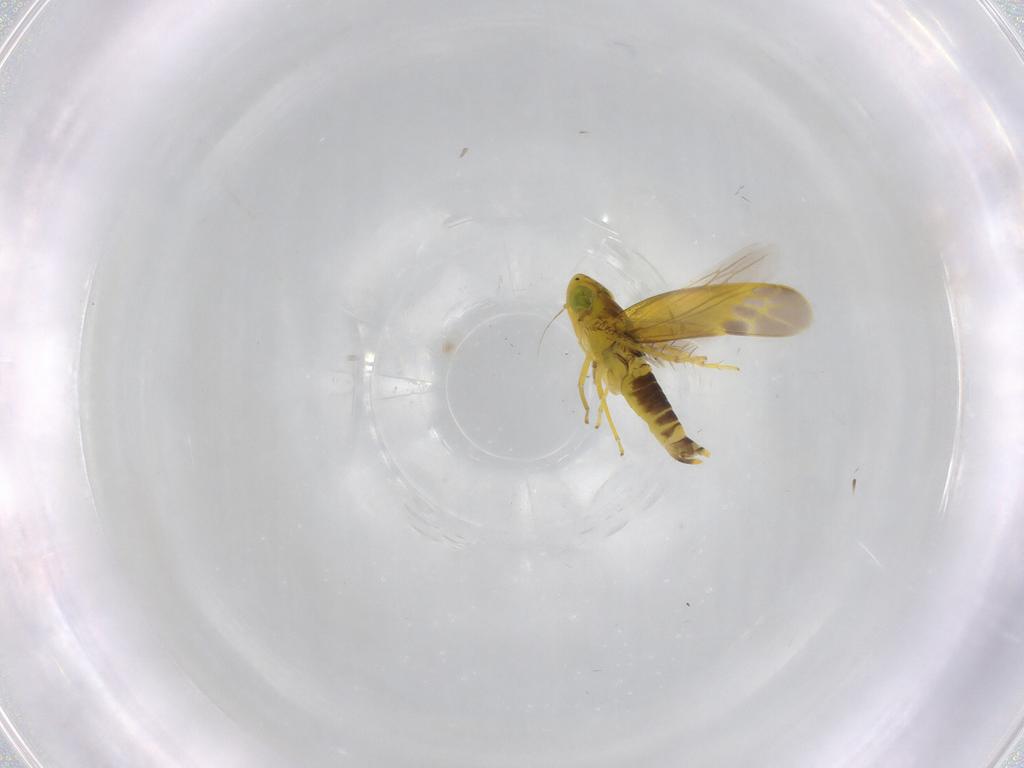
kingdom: Animalia
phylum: Arthropoda
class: Insecta
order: Hemiptera
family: Cicadellidae
